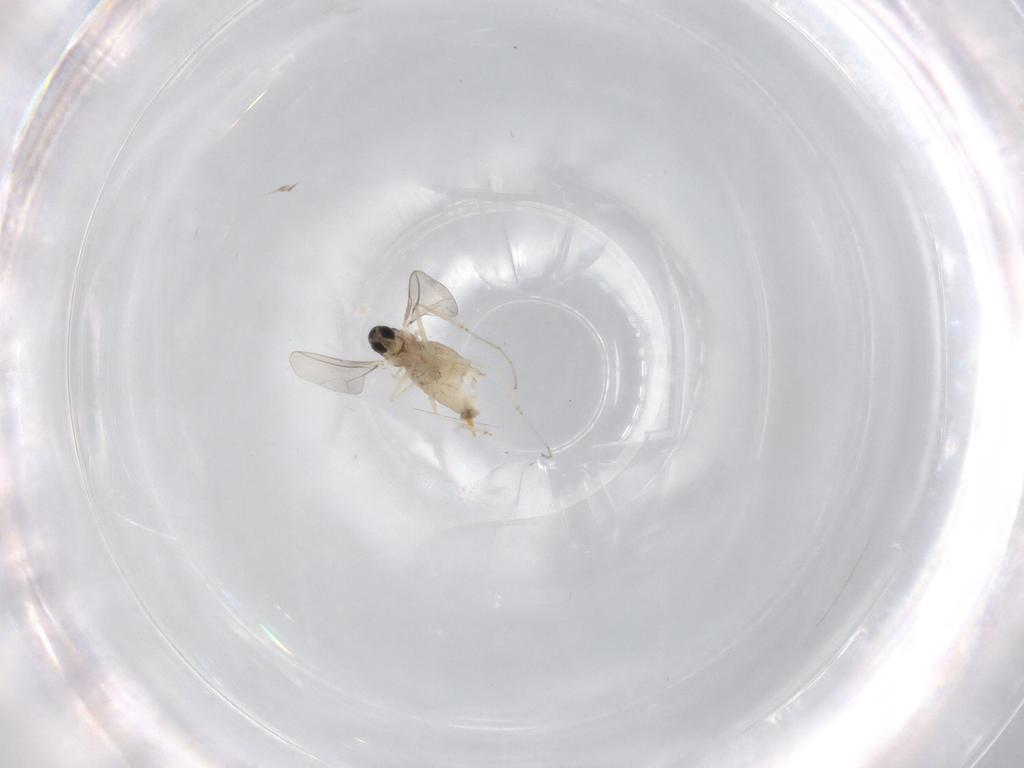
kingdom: Animalia
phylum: Arthropoda
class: Insecta
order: Diptera
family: Cecidomyiidae
